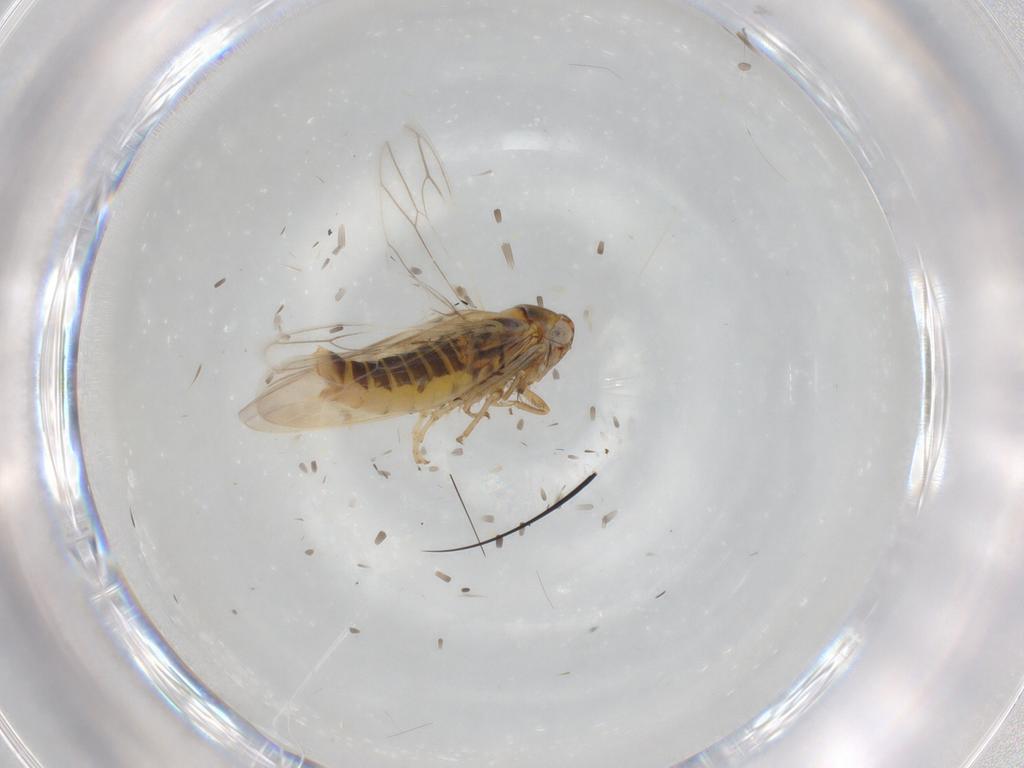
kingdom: Animalia
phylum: Arthropoda
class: Insecta
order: Hemiptera
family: Cicadellidae
